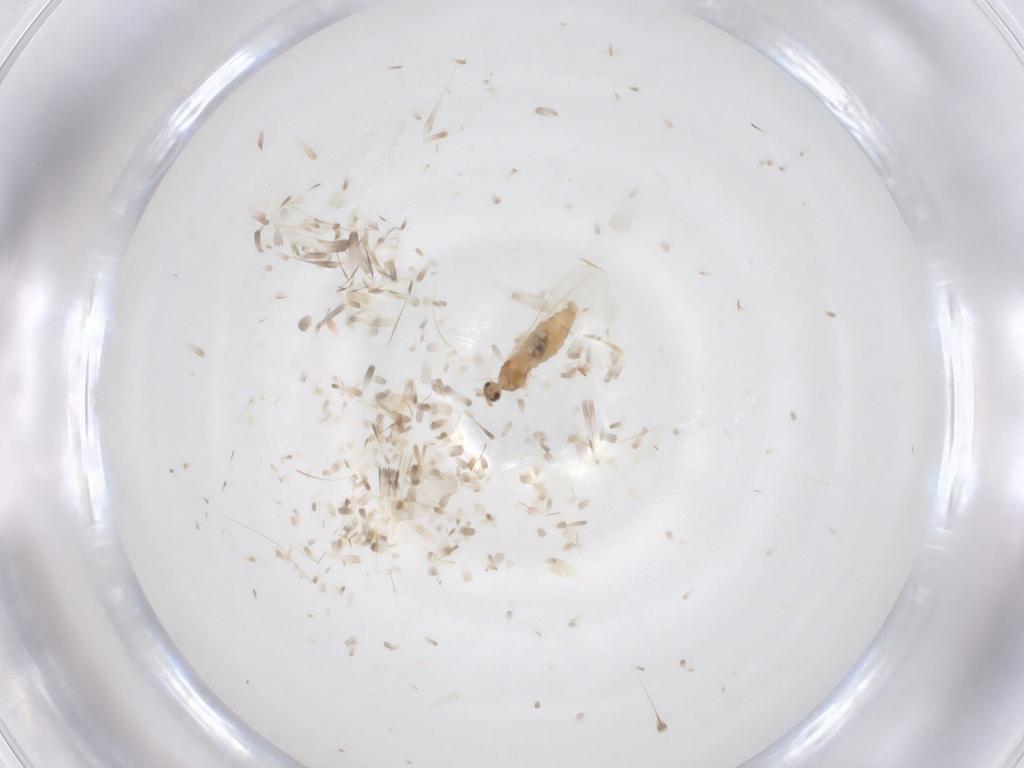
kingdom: Animalia
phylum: Arthropoda
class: Insecta
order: Diptera
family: Cecidomyiidae
